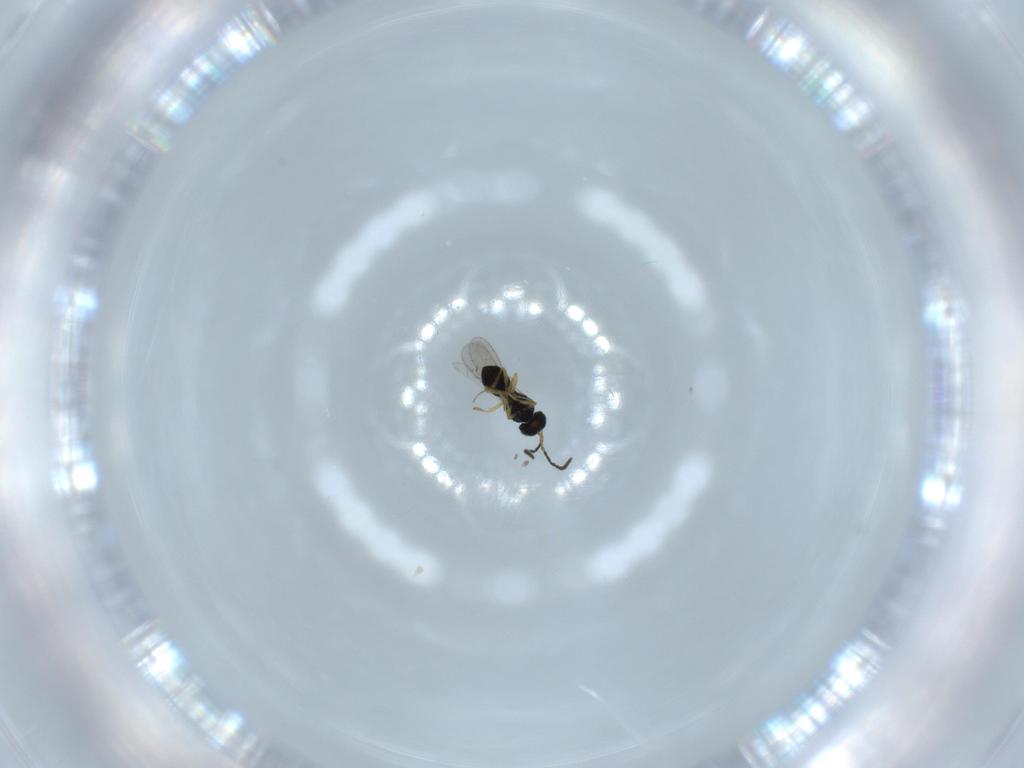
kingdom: Animalia
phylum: Arthropoda
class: Insecta
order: Hymenoptera
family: Scelionidae
